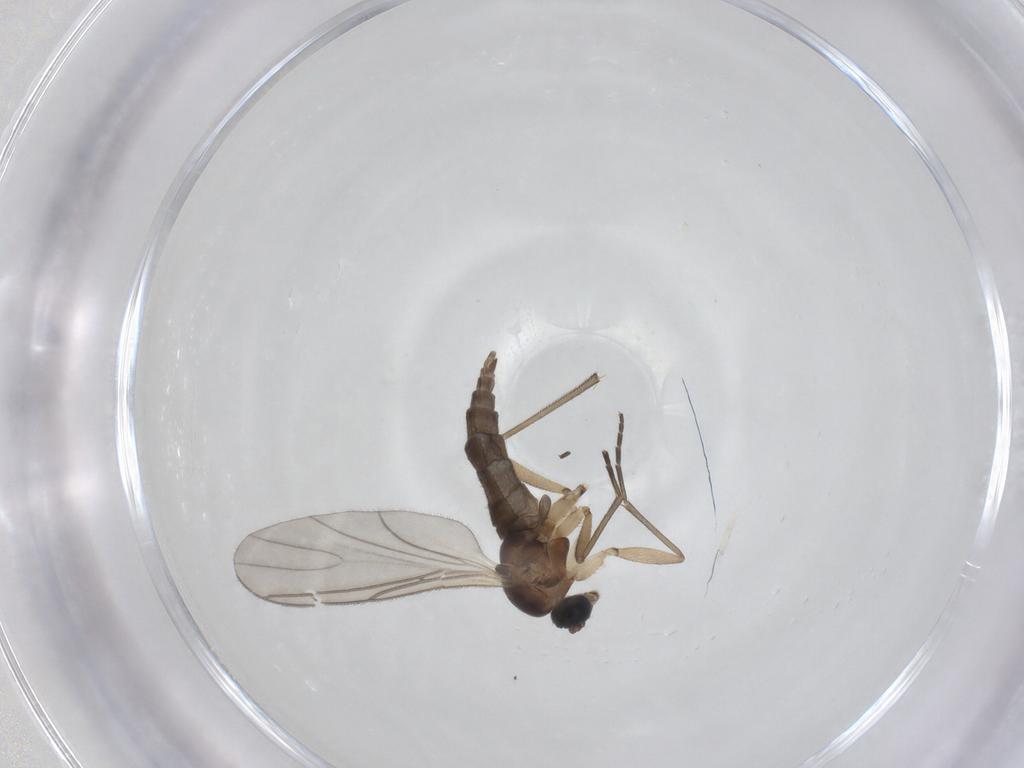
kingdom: Animalia
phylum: Arthropoda
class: Insecta
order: Diptera
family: Sciaridae
